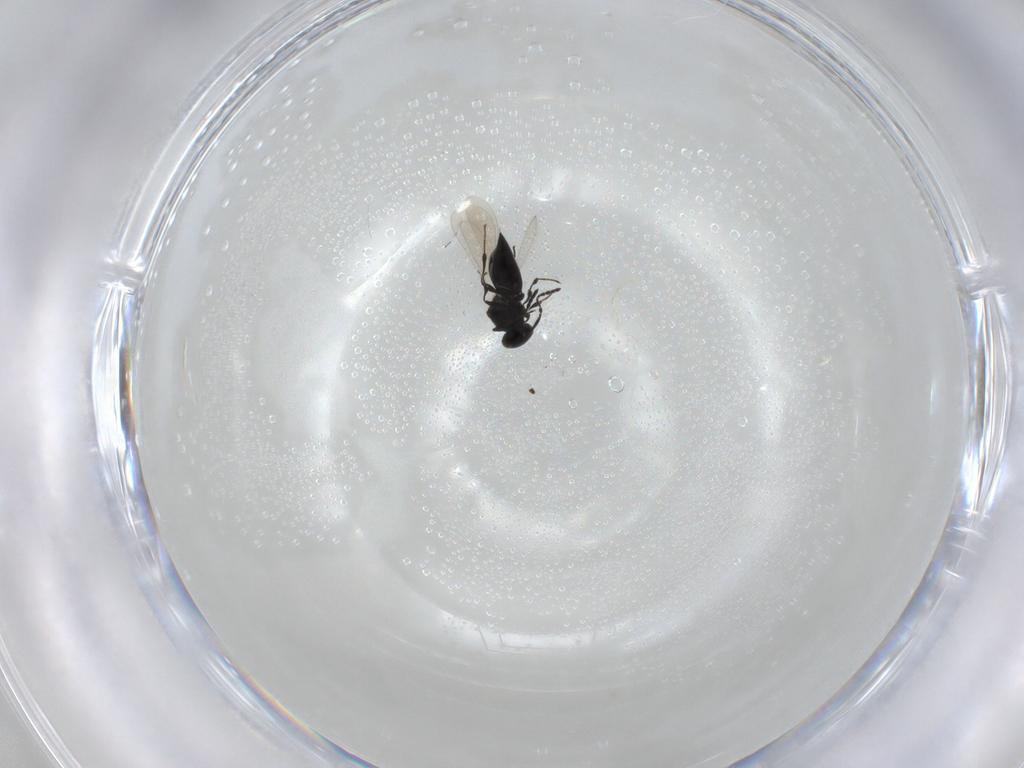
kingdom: Animalia
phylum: Arthropoda
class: Insecta
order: Hymenoptera
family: Platygastridae
